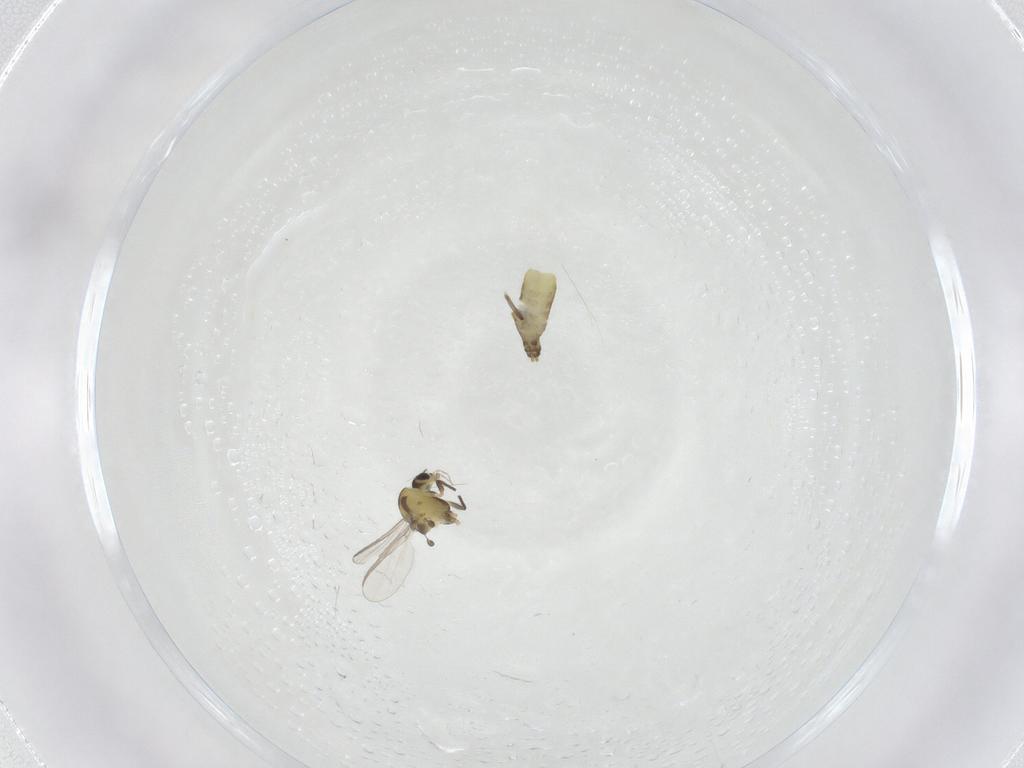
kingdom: Animalia
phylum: Arthropoda
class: Insecta
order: Diptera
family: Chironomidae
